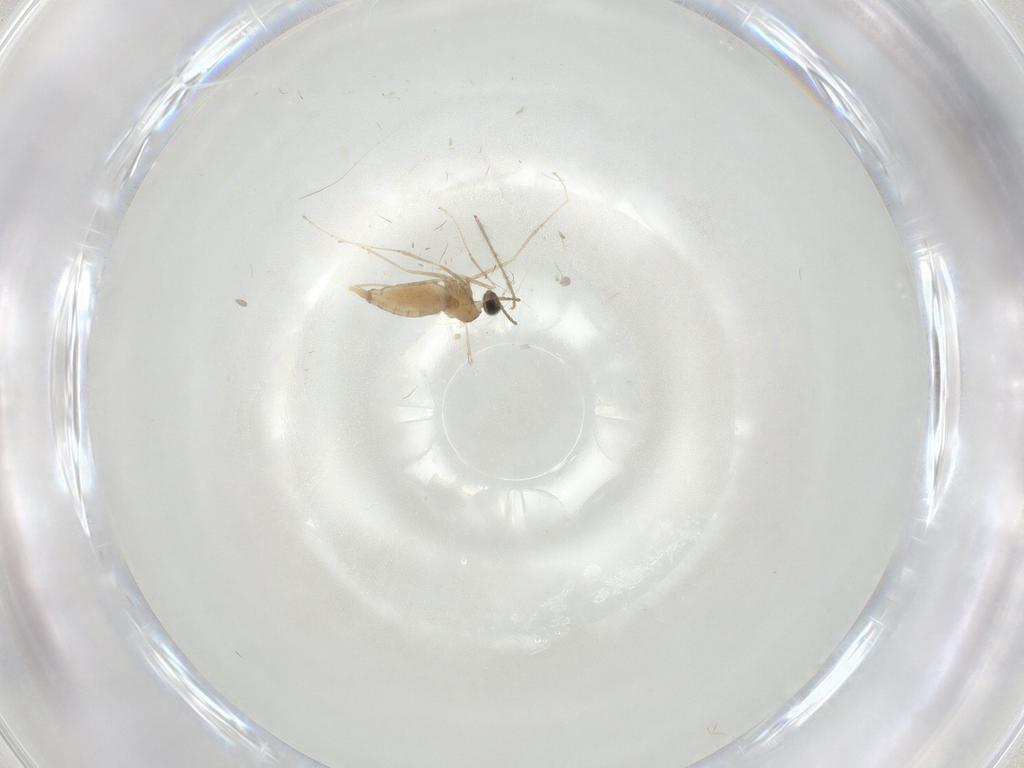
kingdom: Animalia
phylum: Arthropoda
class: Insecta
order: Diptera
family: Cecidomyiidae
